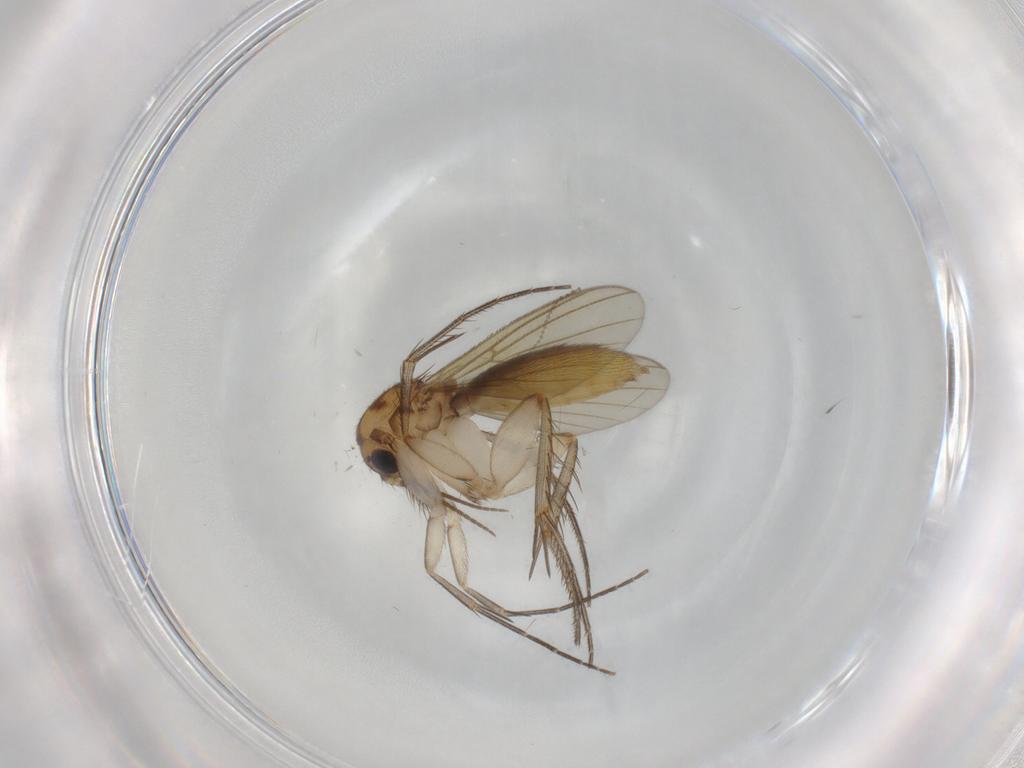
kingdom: Animalia
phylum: Arthropoda
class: Insecta
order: Diptera
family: Mycetophilidae
